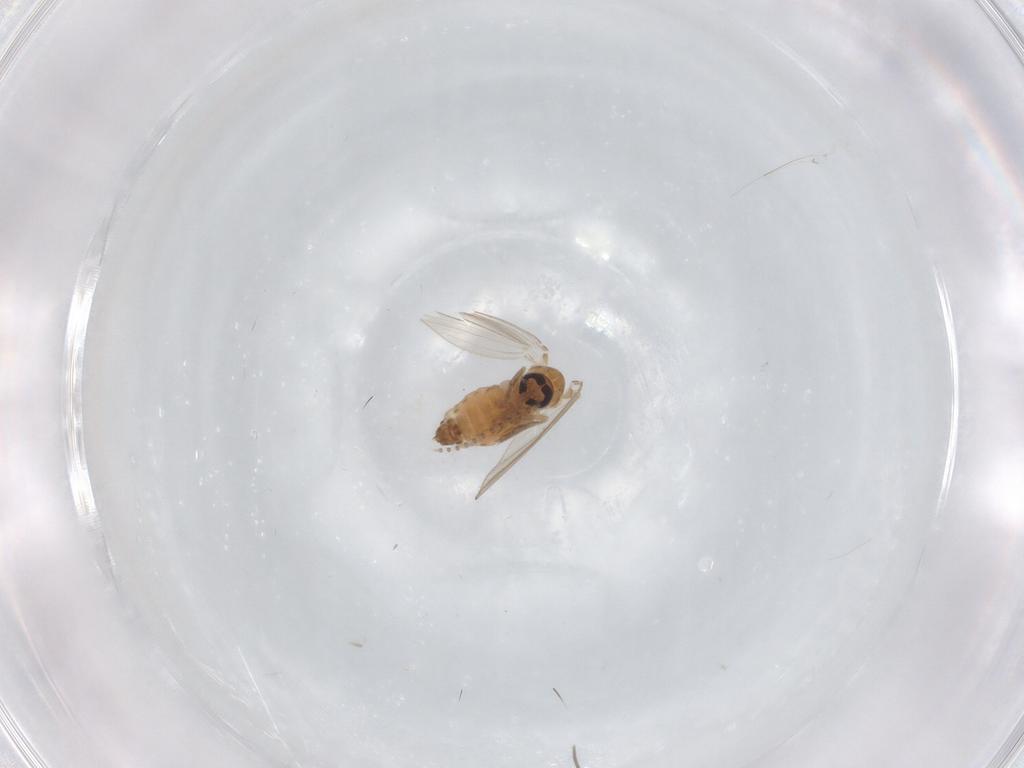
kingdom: Animalia
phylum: Arthropoda
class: Insecta
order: Diptera
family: Psychodidae
